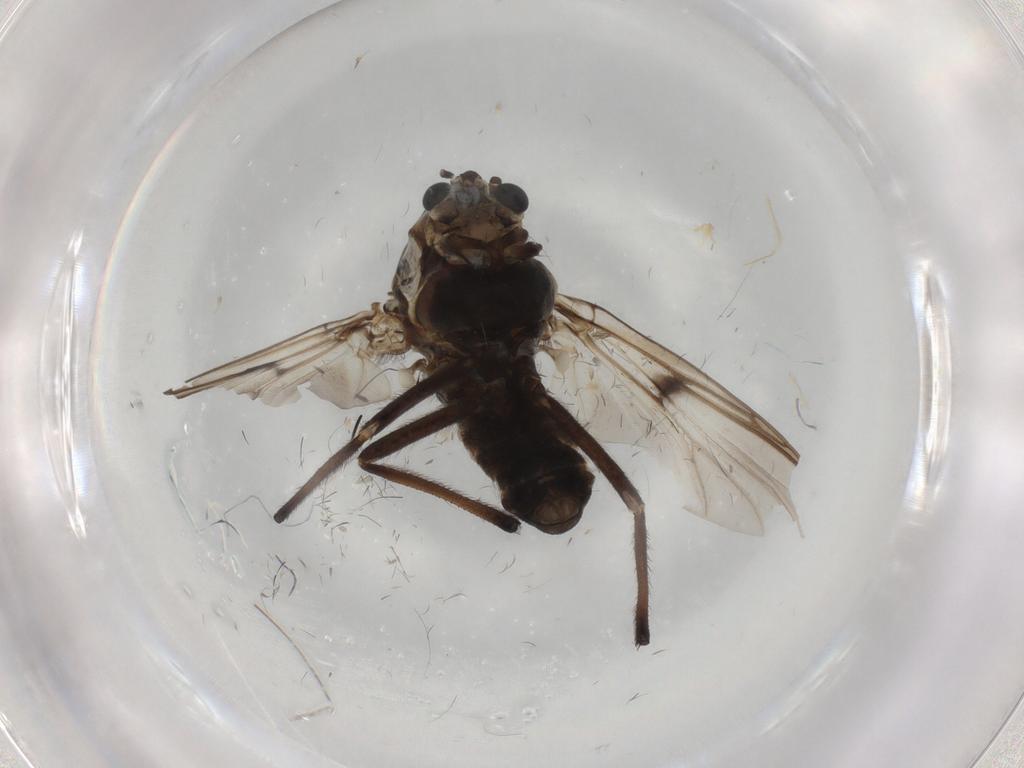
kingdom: Animalia
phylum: Arthropoda
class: Insecta
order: Diptera
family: Chironomidae
